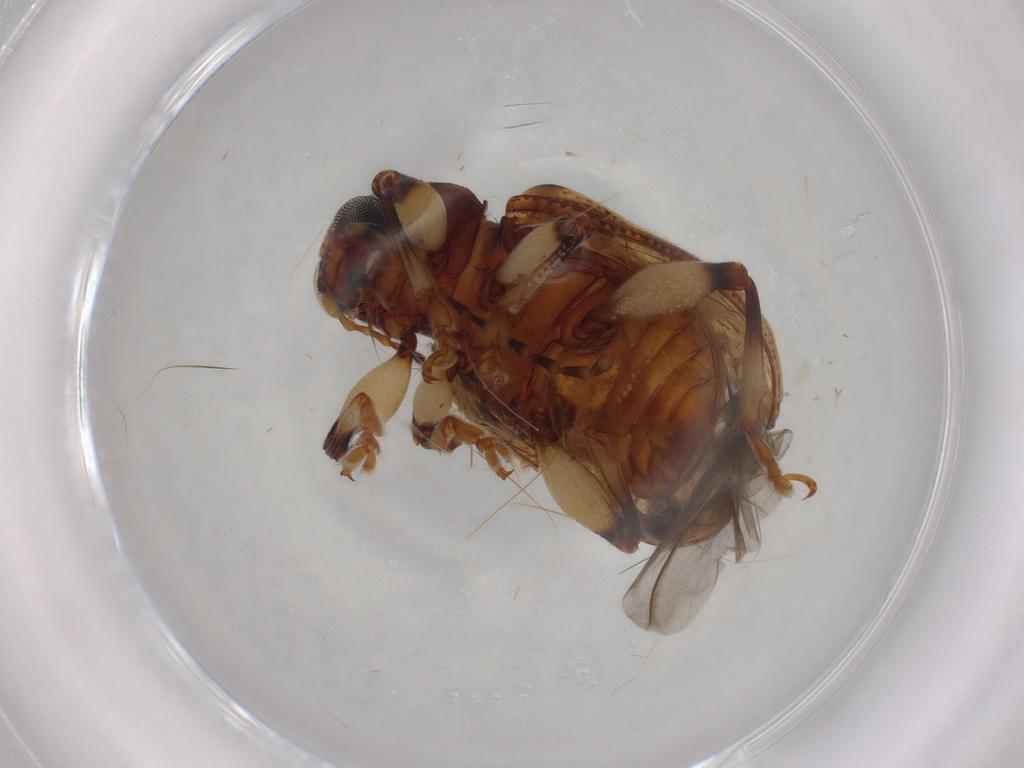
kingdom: Animalia
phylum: Arthropoda
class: Insecta
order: Coleoptera
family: Chrysomelidae
